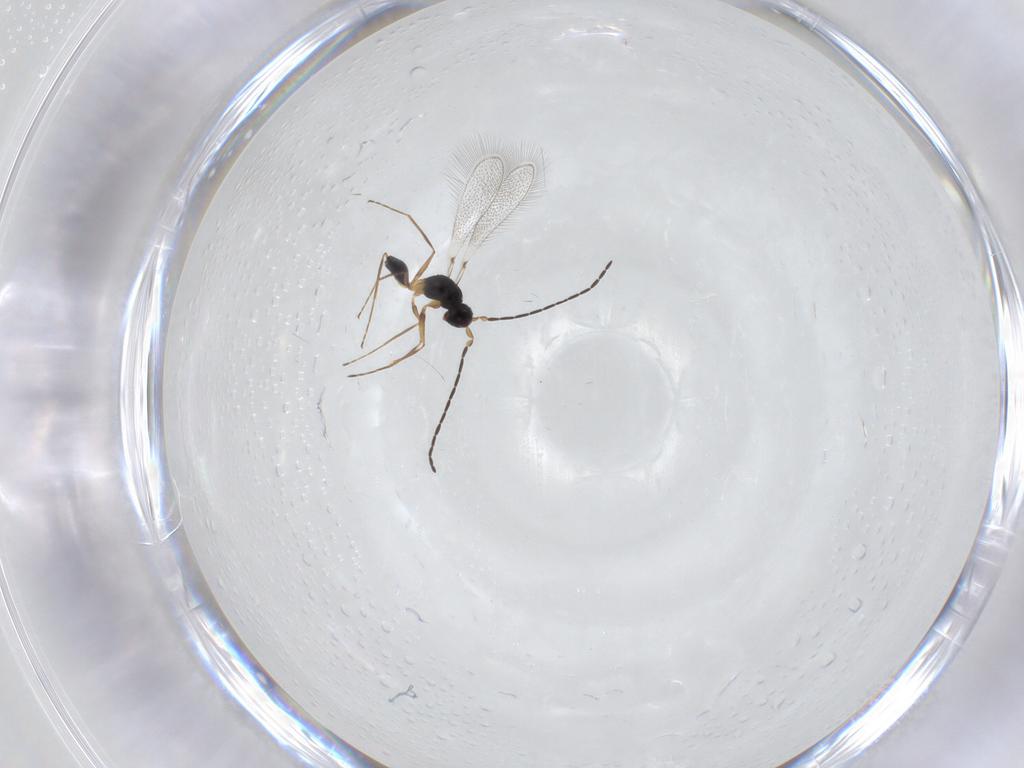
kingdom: Animalia
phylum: Arthropoda
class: Insecta
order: Hymenoptera
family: Mymaridae
